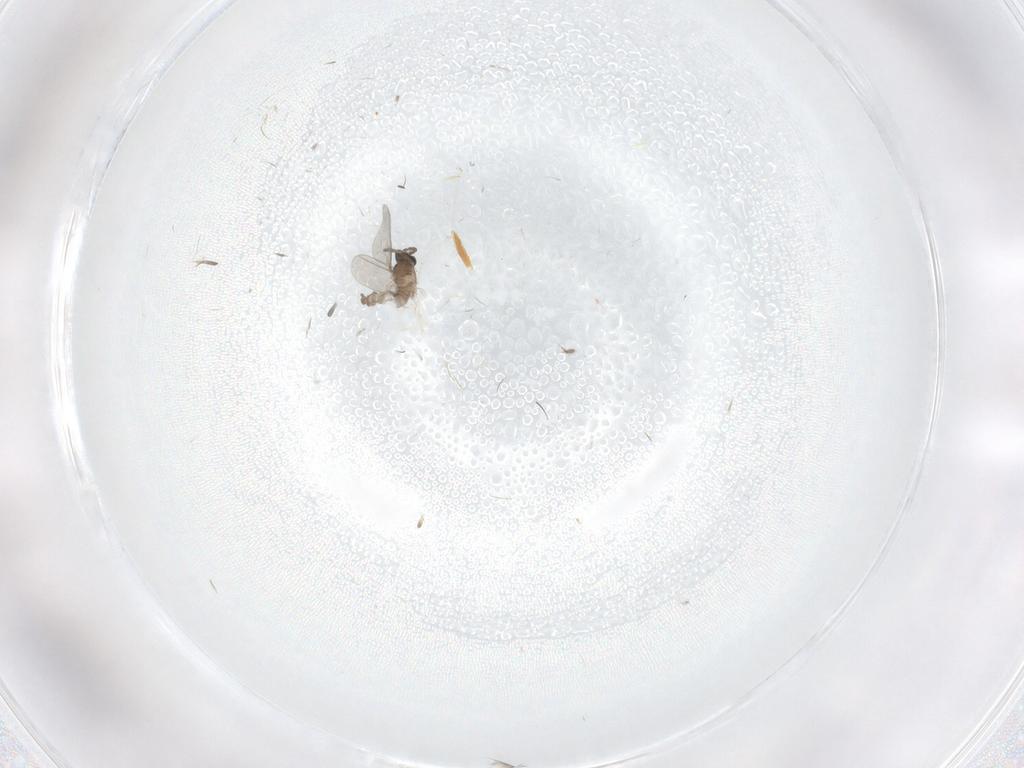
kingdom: Animalia
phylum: Arthropoda
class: Insecta
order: Diptera
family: Cecidomyiidae
